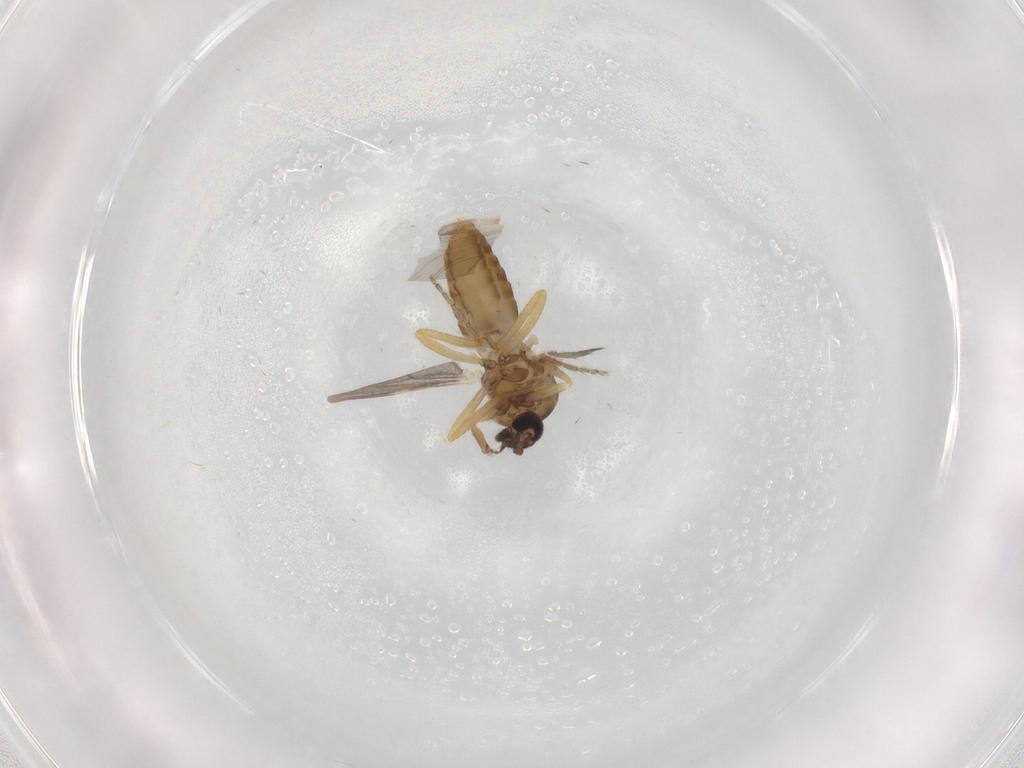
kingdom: Animalia
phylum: Arthropoda
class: Insecta
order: Diptera
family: Ceratopogonidae
